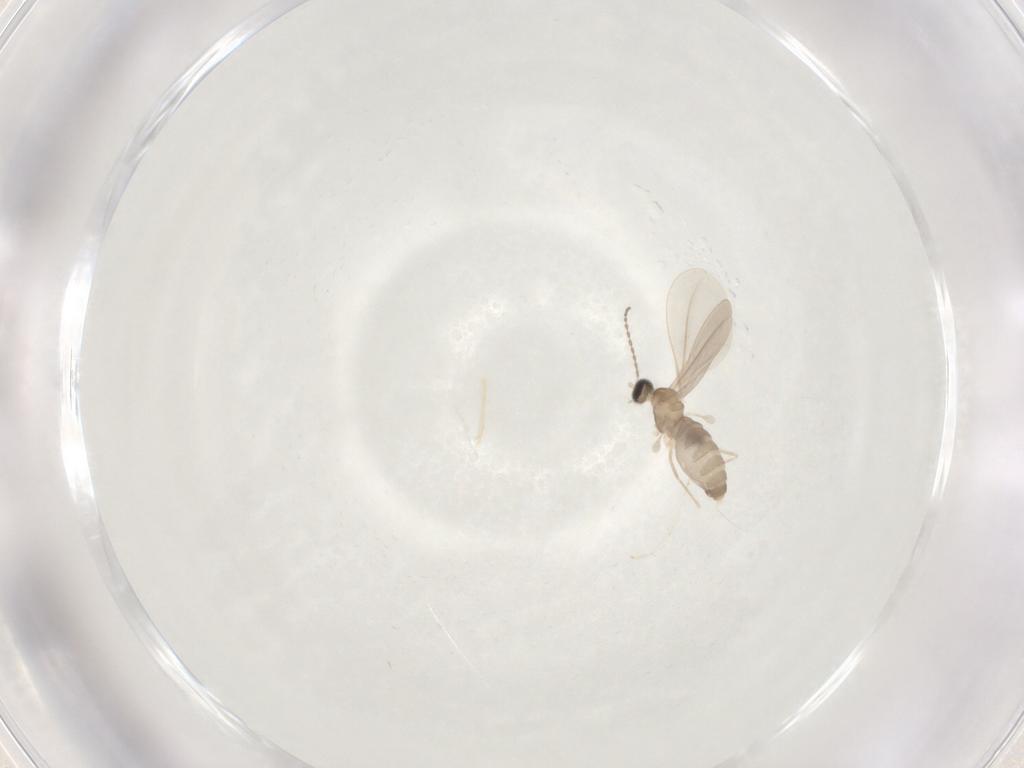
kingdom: Animalia
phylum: Arthropoda
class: Insecta
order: Diptera
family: Cecidomyiidae
